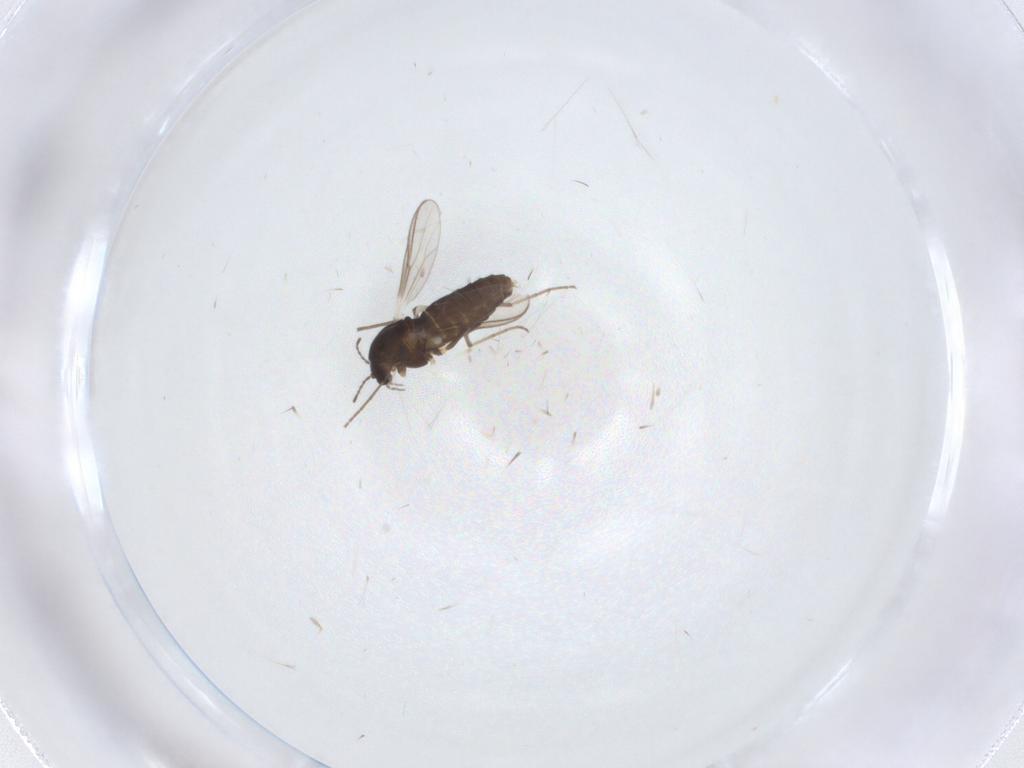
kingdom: Animalia
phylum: Arthropoda
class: Insecta
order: Diptera
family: Chironomidae
